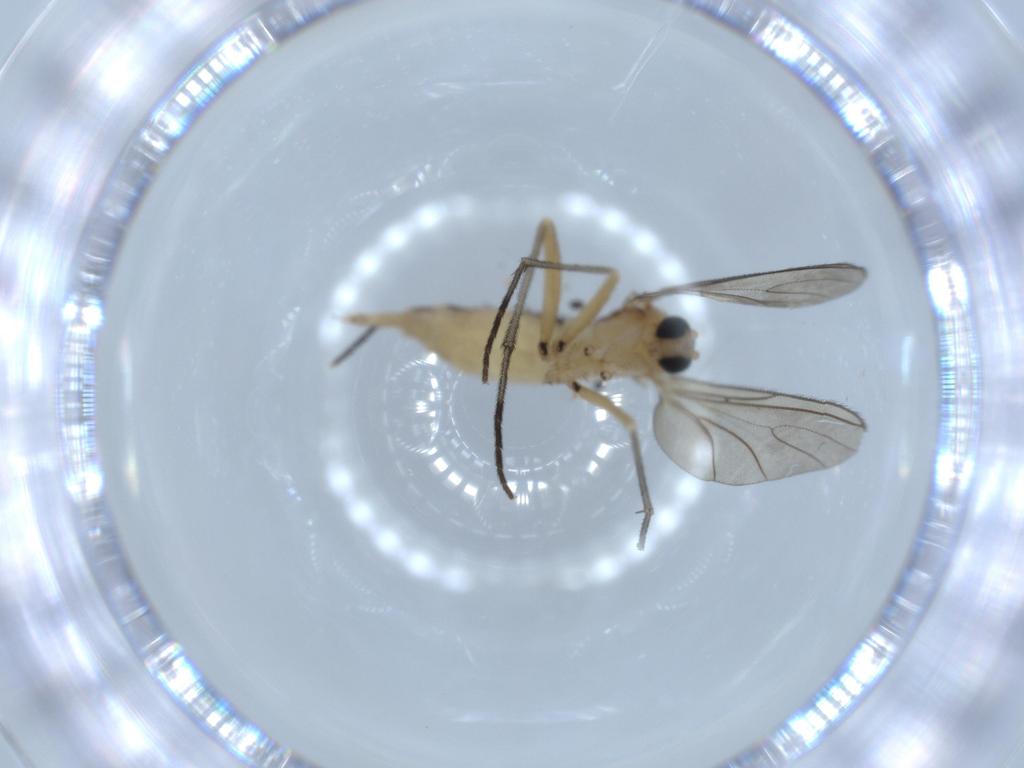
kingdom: Animalia
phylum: Arthropoda
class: Insecta
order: Diptera
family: Sciaridae
